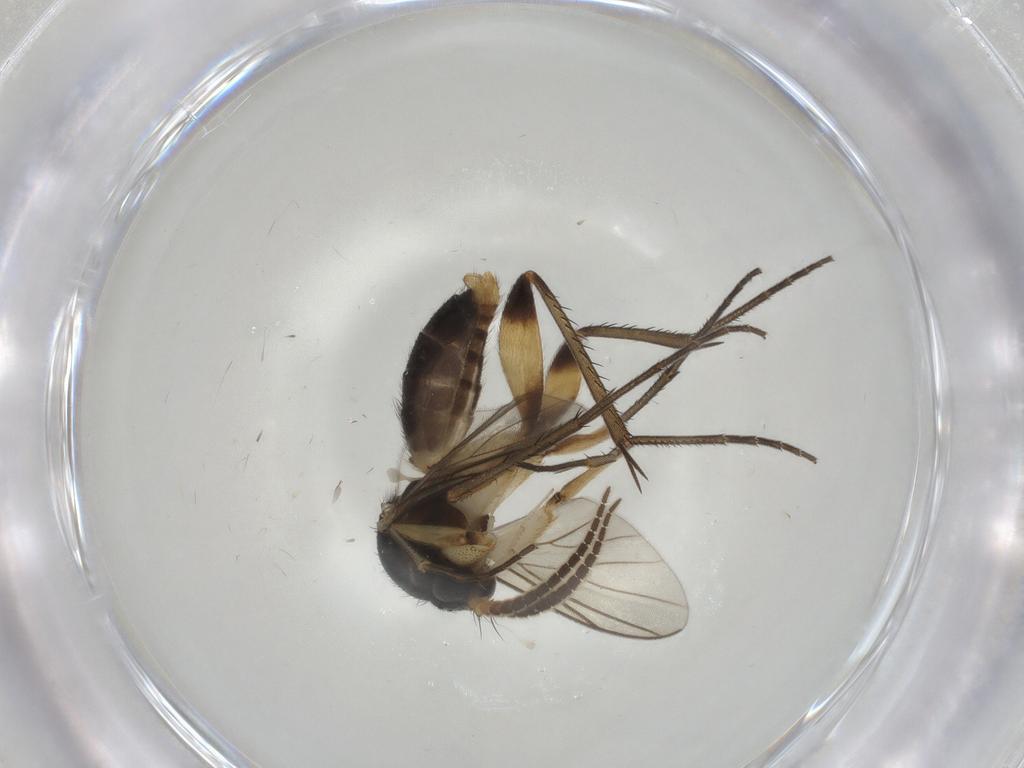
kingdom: Animalia
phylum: Arthropoda
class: Insecta
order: Diptera
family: Mycetophilidae
